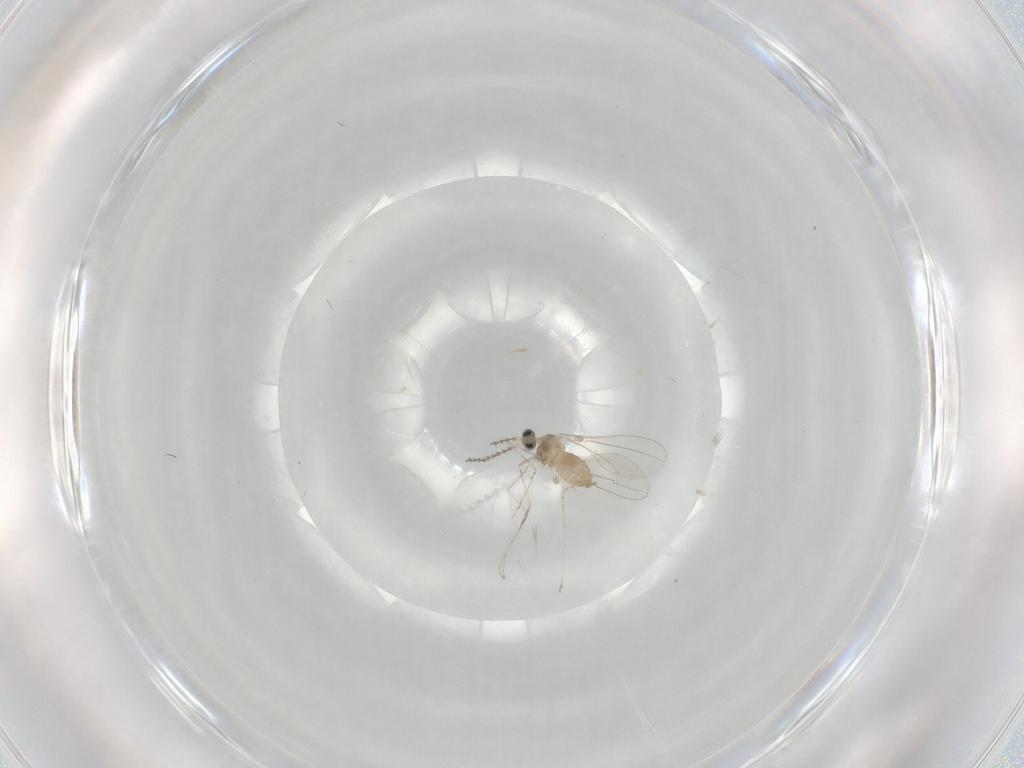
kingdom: Animalia
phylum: Arthropoda
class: Insecta
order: Diptera
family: Cecidomyiidae
